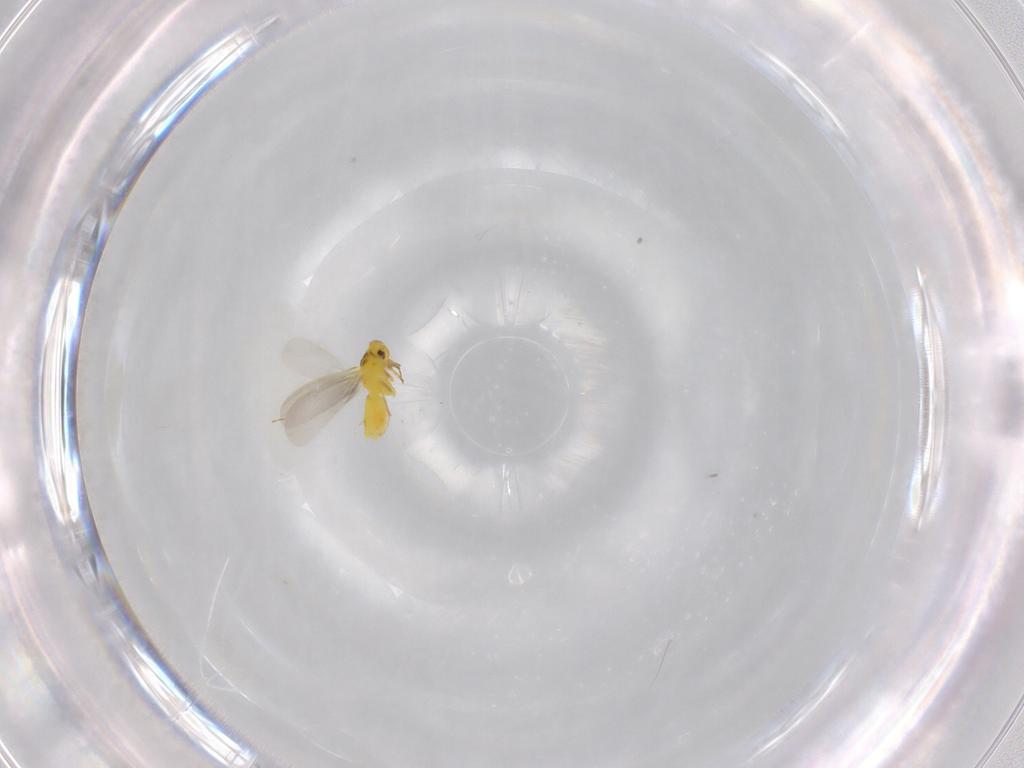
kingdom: Animalia
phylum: Arthropoda
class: Insecta
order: Hemiptera
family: Aleyrodidae
